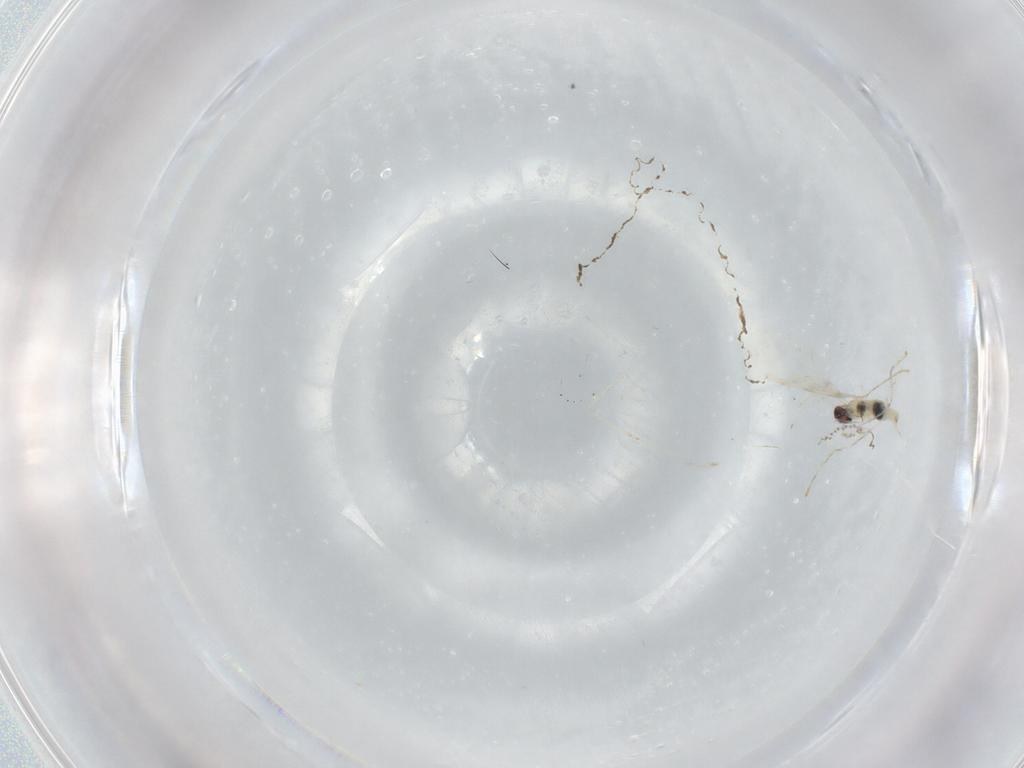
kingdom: Animalia
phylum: Arthropoda
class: Insecta
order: Diptera
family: Cecidomyiidae
